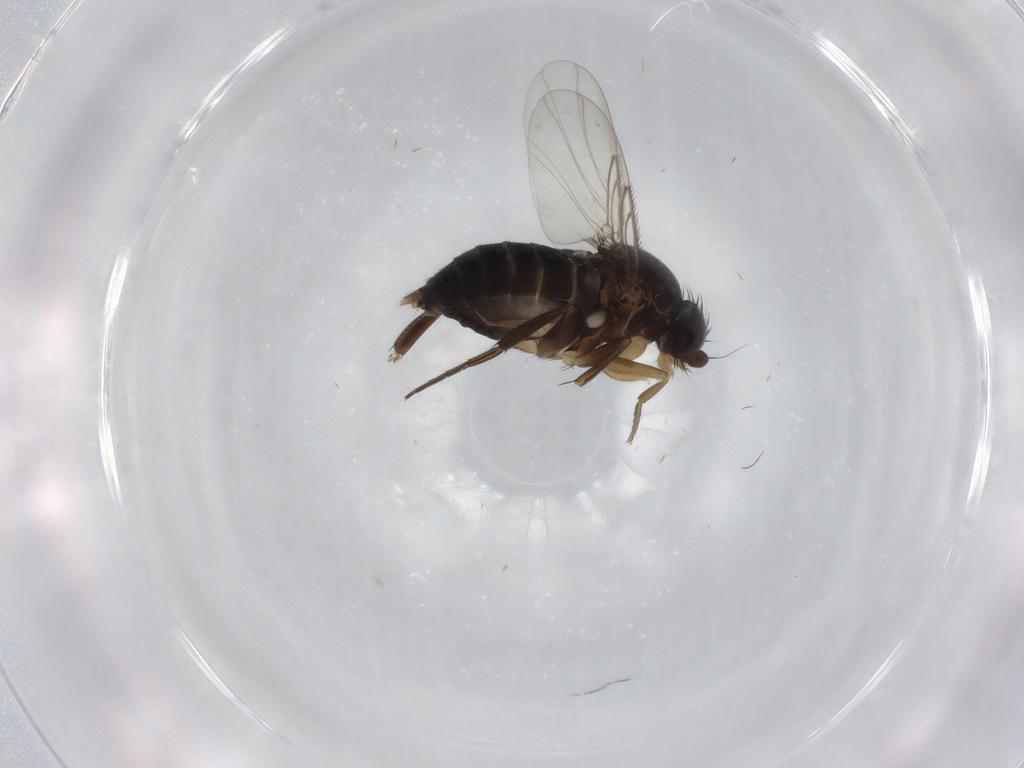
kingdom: Animalia
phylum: Arthropoda
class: Insecta
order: Diptera
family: Phoridae
